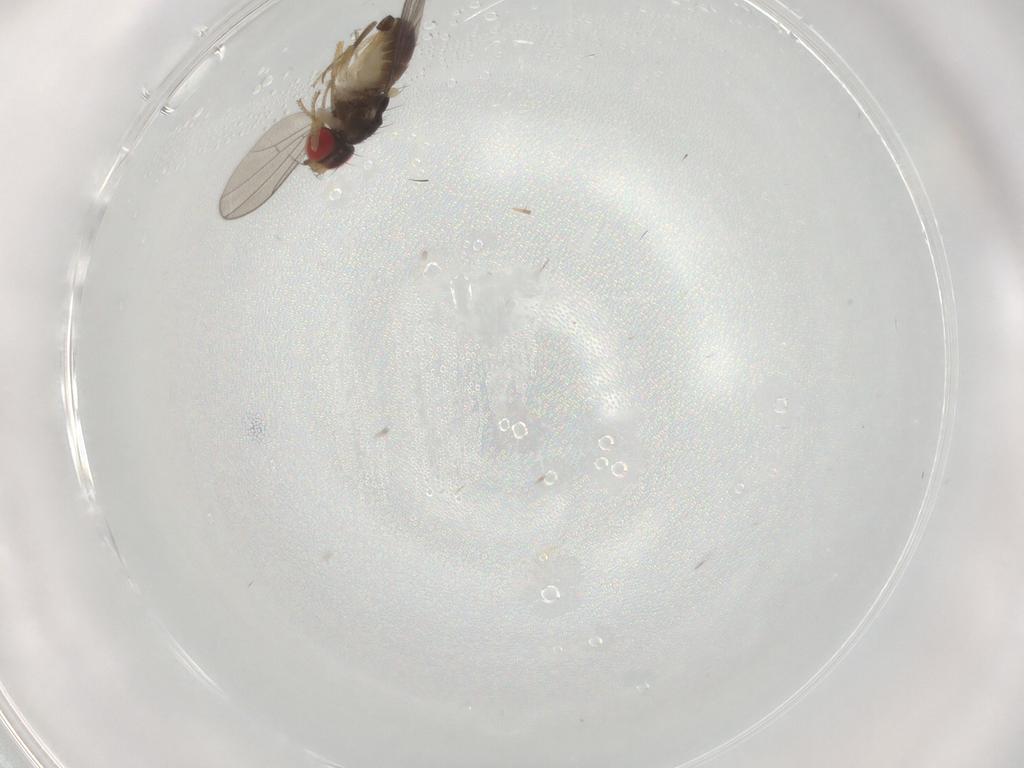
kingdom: Animalia
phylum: Arthropoda
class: Insecta
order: Diptera
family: Drosophilidae
